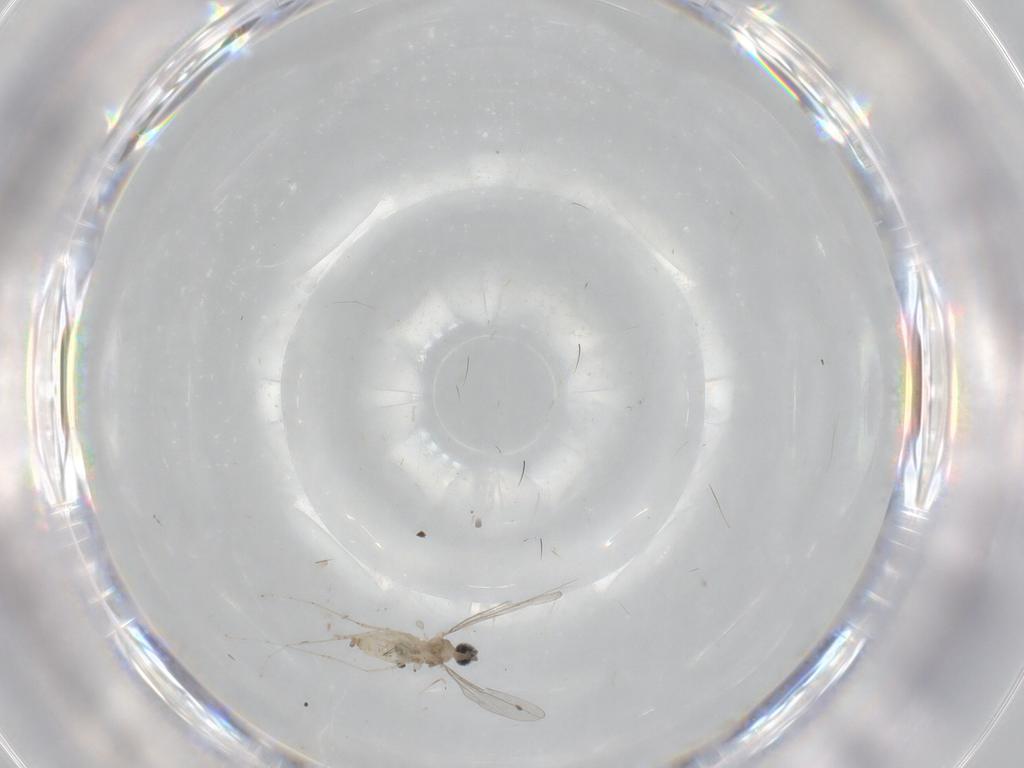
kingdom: Animalia
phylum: Arthropoda
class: Insecta
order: Diptera
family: Cecidomyiidae
